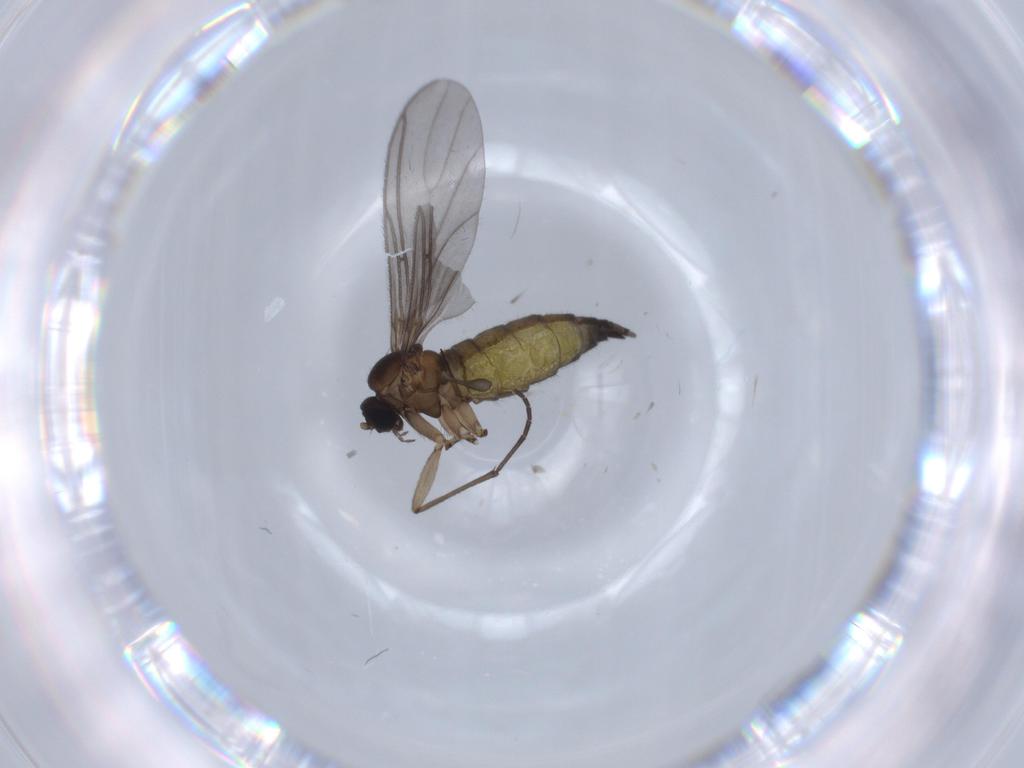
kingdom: Animalia
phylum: Arthropoda
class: Insecta
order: Diptera
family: Sciaridae
